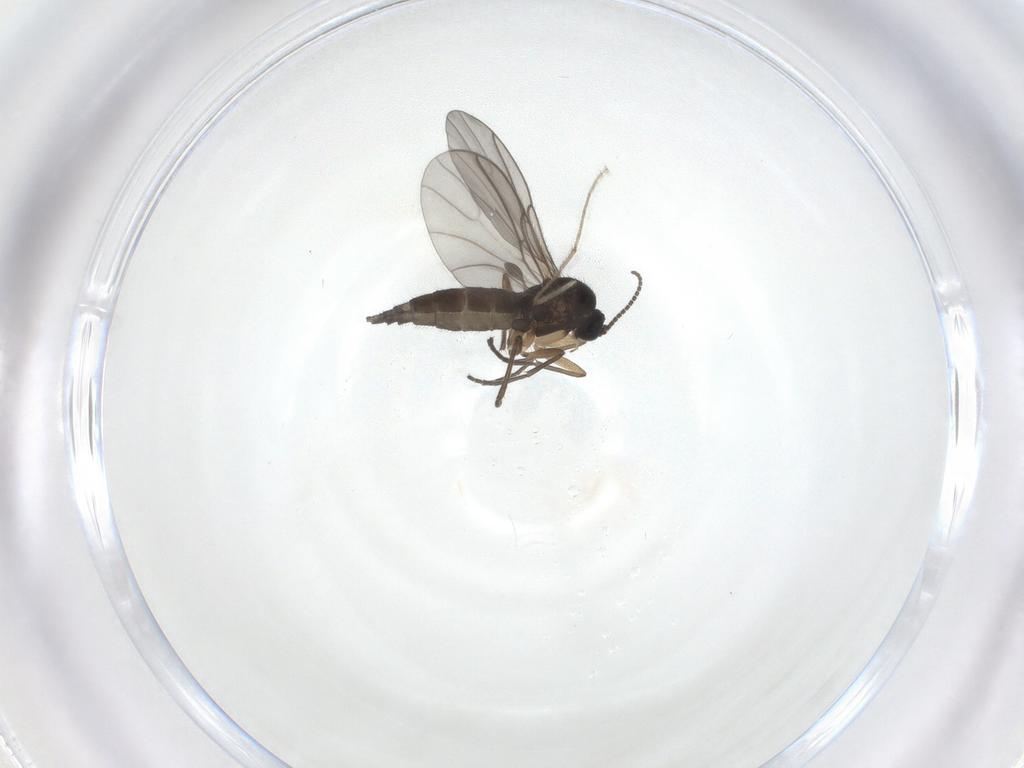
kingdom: Animalia
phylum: Arthropoda
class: Insecta
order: Diptera
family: Sciaridae
